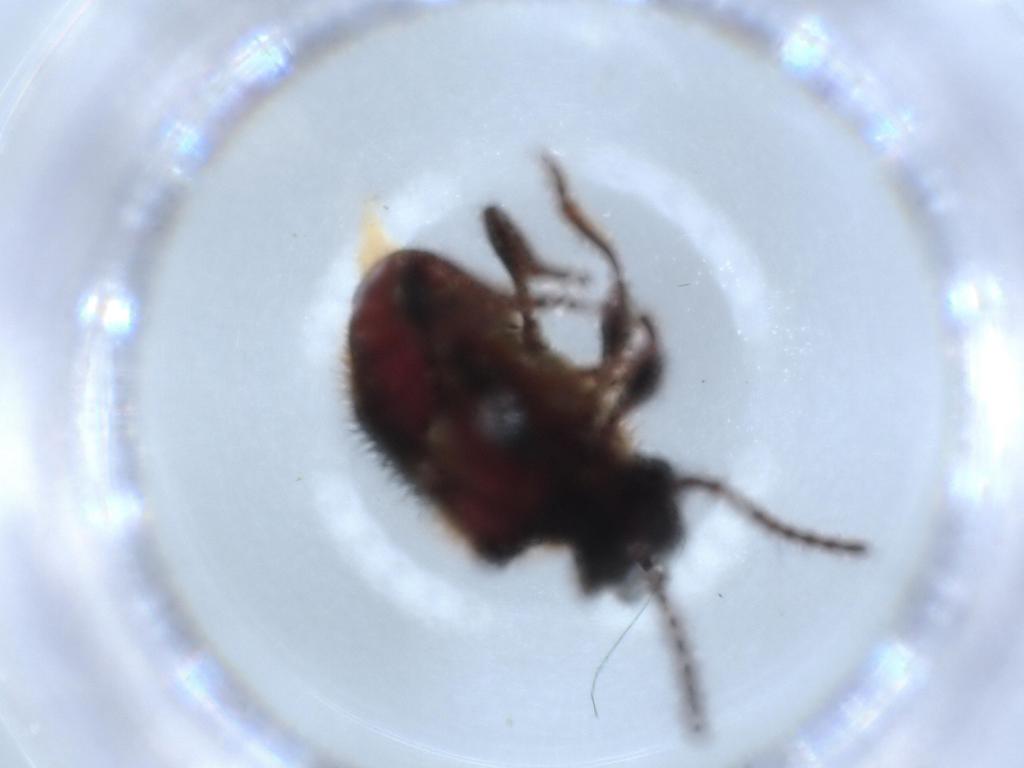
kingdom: Animalia
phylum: Arthropoda
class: Insecta
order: Coleoptera
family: Ptinidae
